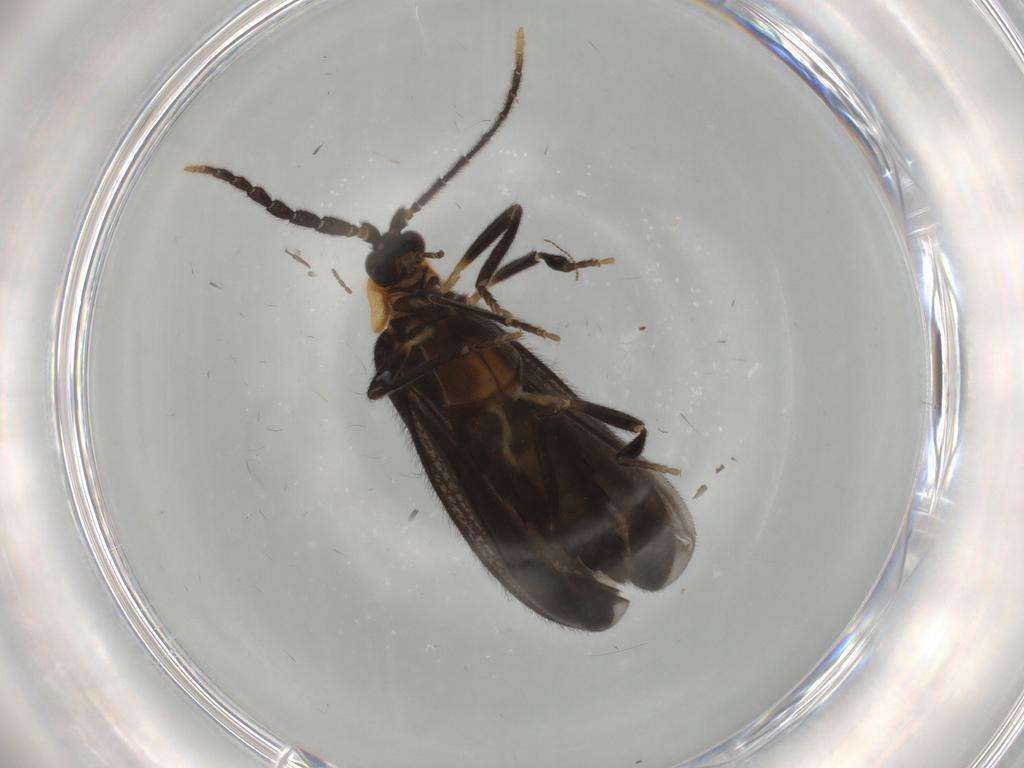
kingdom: Animalia
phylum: Arthropoda
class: Insecta
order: Coleoptera
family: Lycidae
